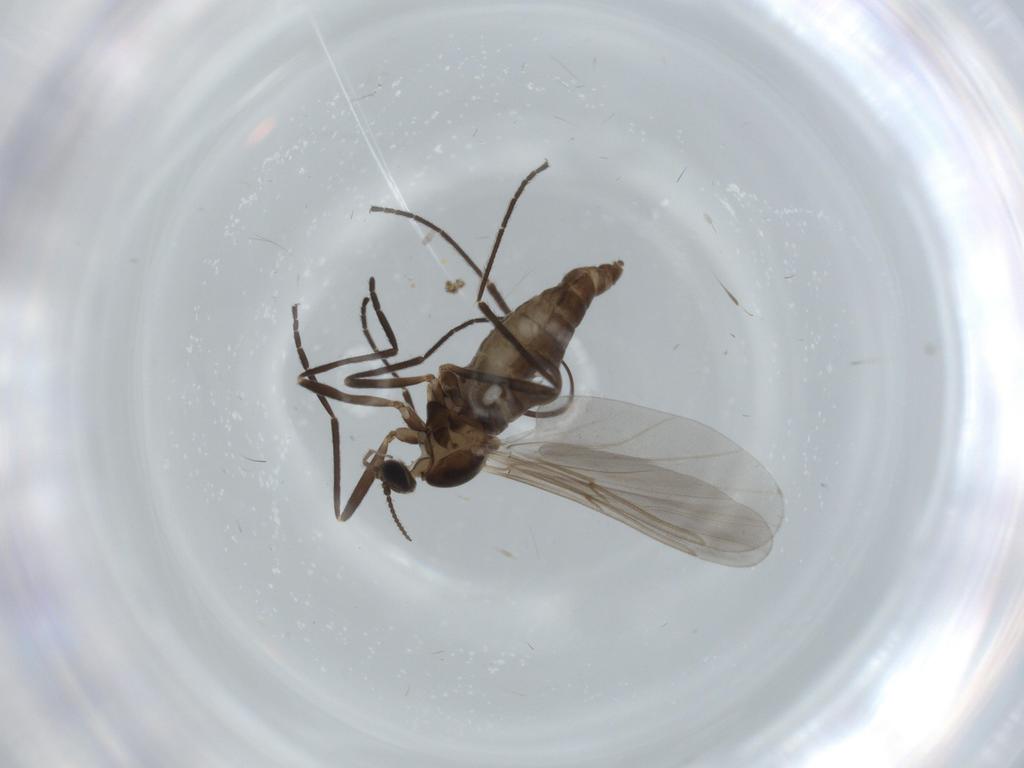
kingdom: Animalia
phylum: Arthropoda
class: Insecta
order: Diptera
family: Cecidomyiidae
